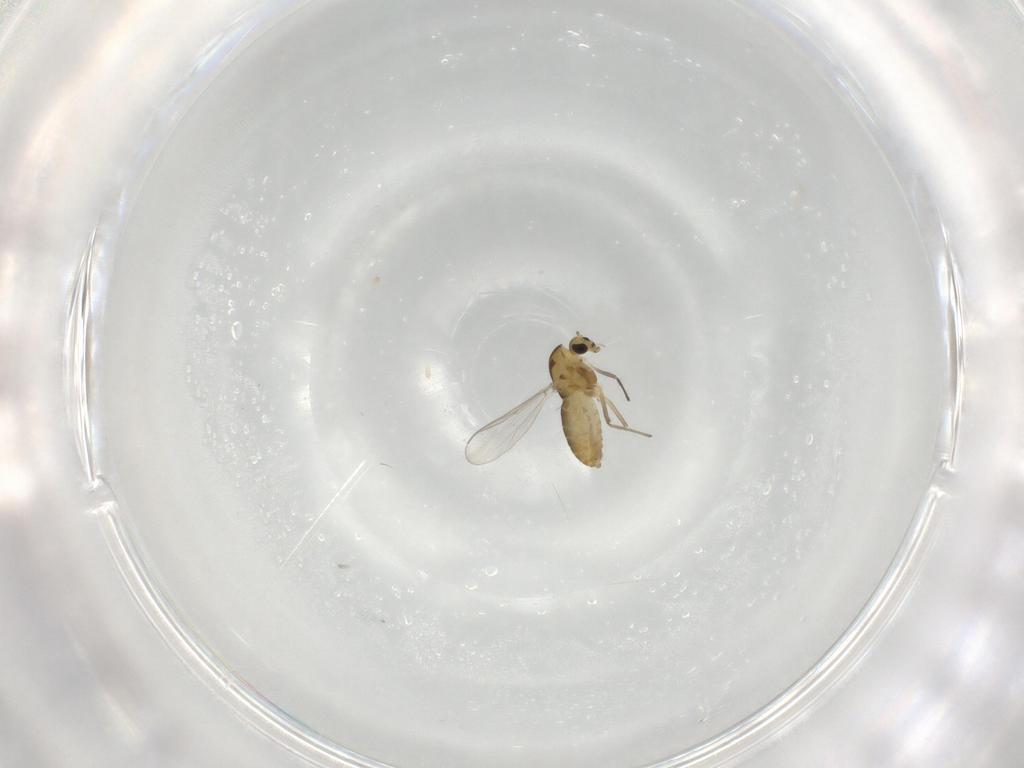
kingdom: Animalia
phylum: Arthropoda
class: Insecta
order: Diptera
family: Chironomidae
